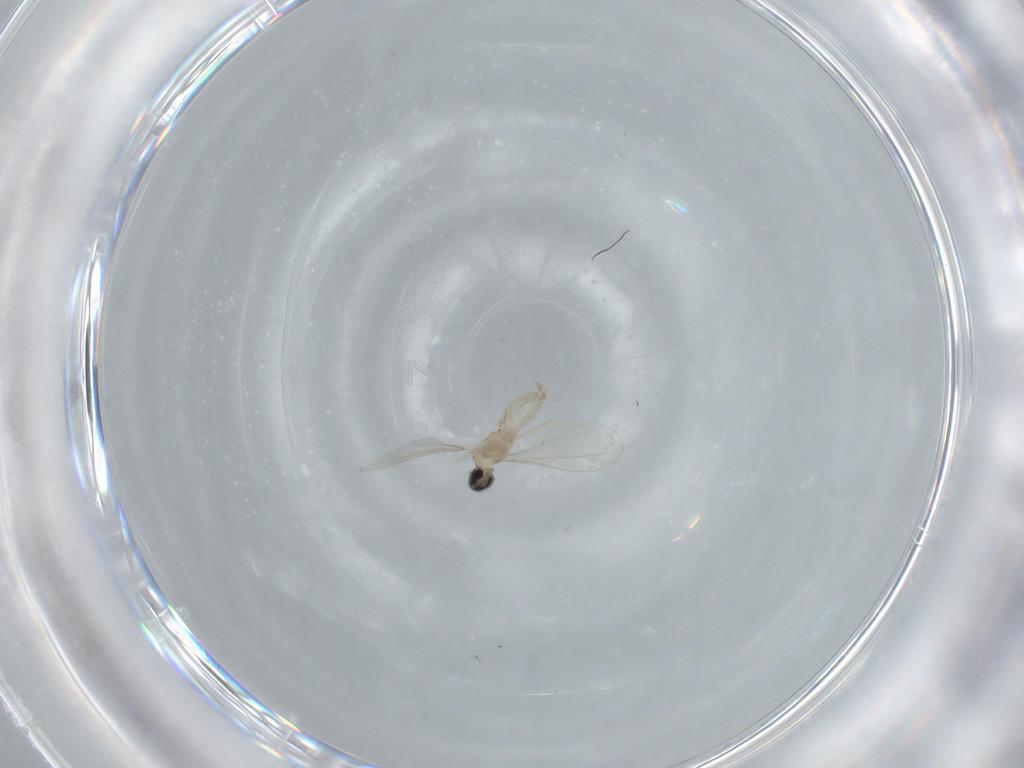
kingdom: Animalia
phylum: Arthropoda
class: Insecta
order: Diptera
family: Cecidomyiidae
